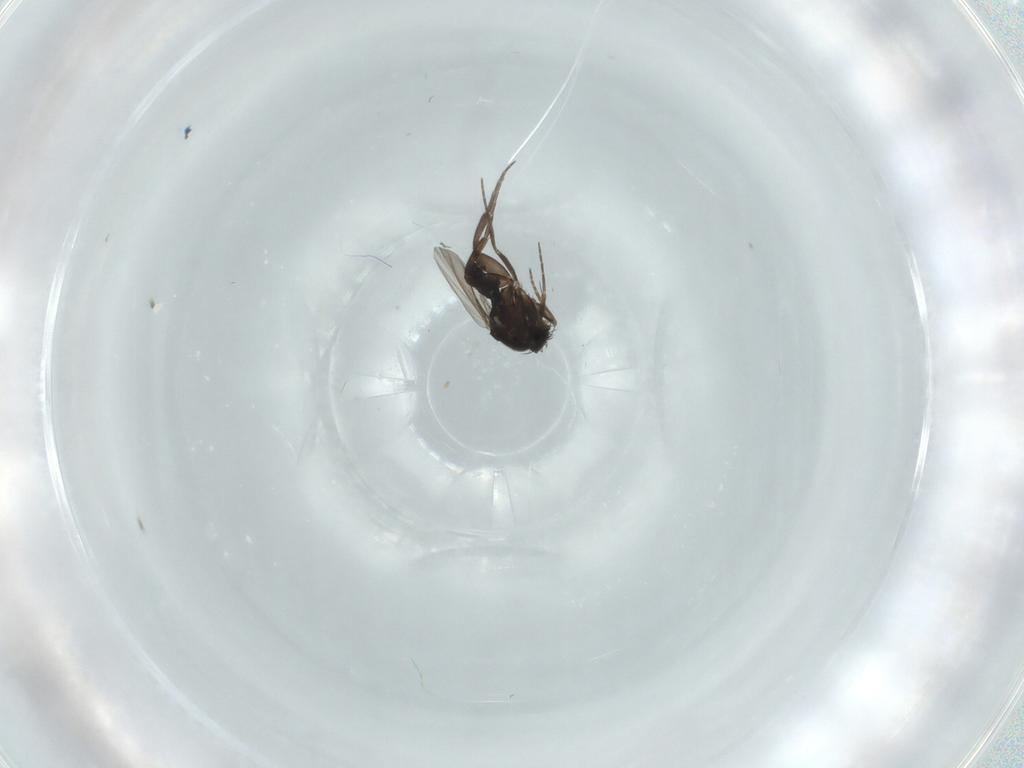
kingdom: Animalia
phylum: Arthropoda
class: Insecta
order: Diptera
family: Phoridae
